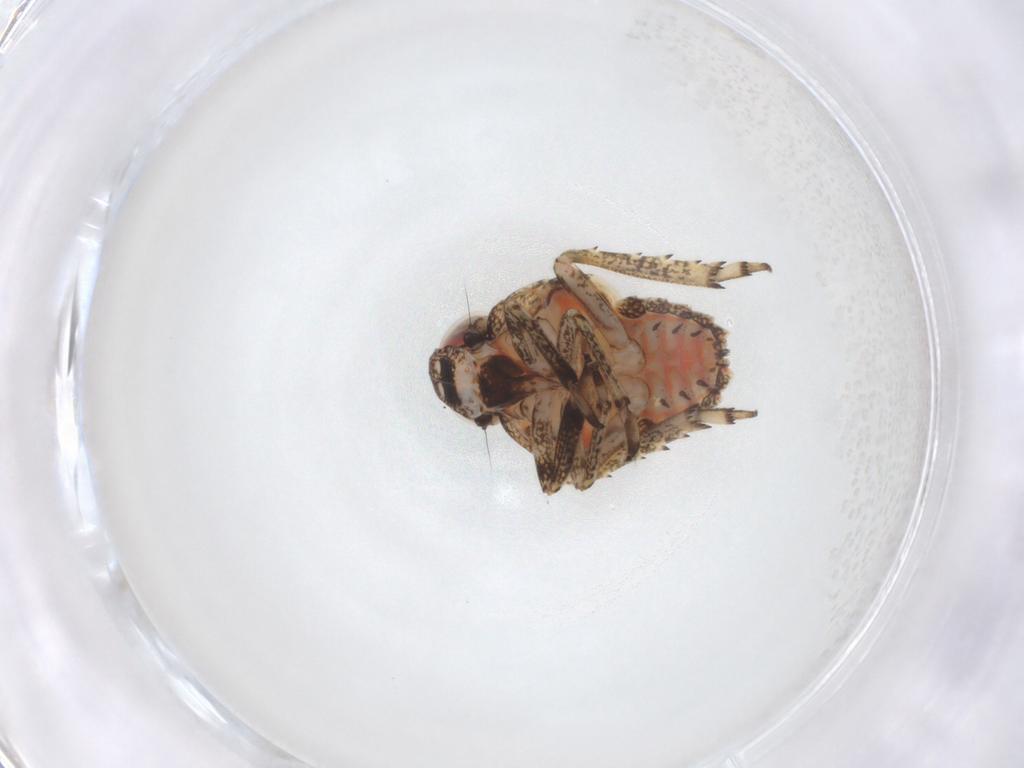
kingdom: Animalia
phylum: Arthropoda
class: Insecta
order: Hemiptera
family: Issidae
